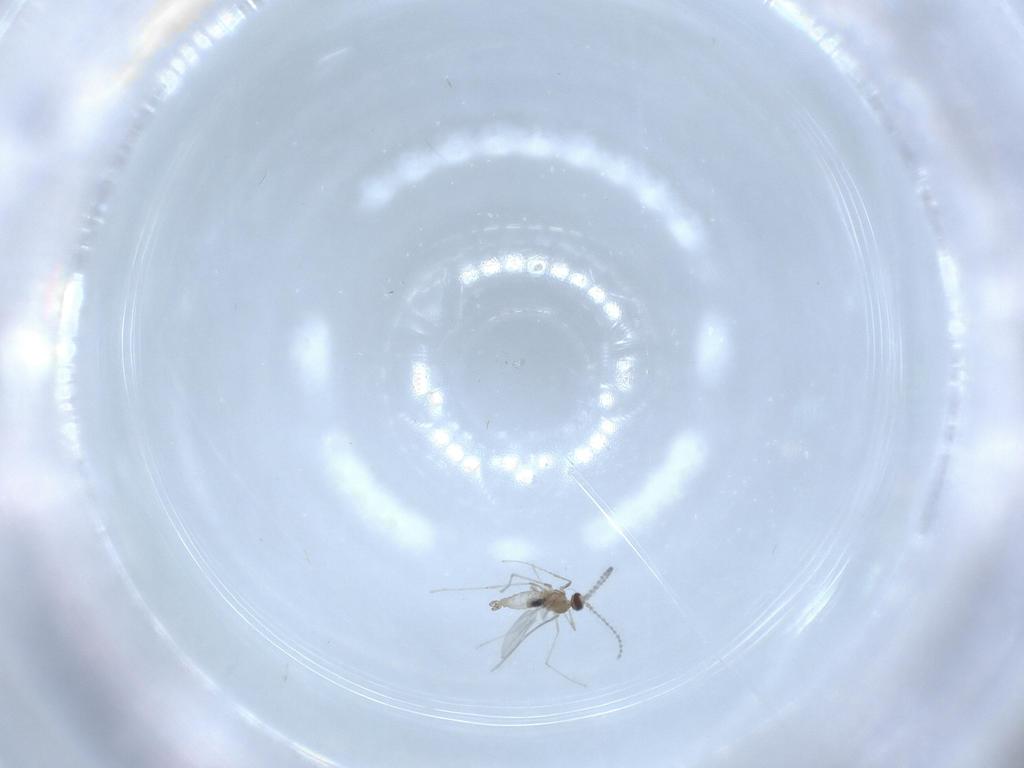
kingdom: Animalia
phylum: Arthropoda
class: Insecta
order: Diptera
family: Cecidomyiidae
